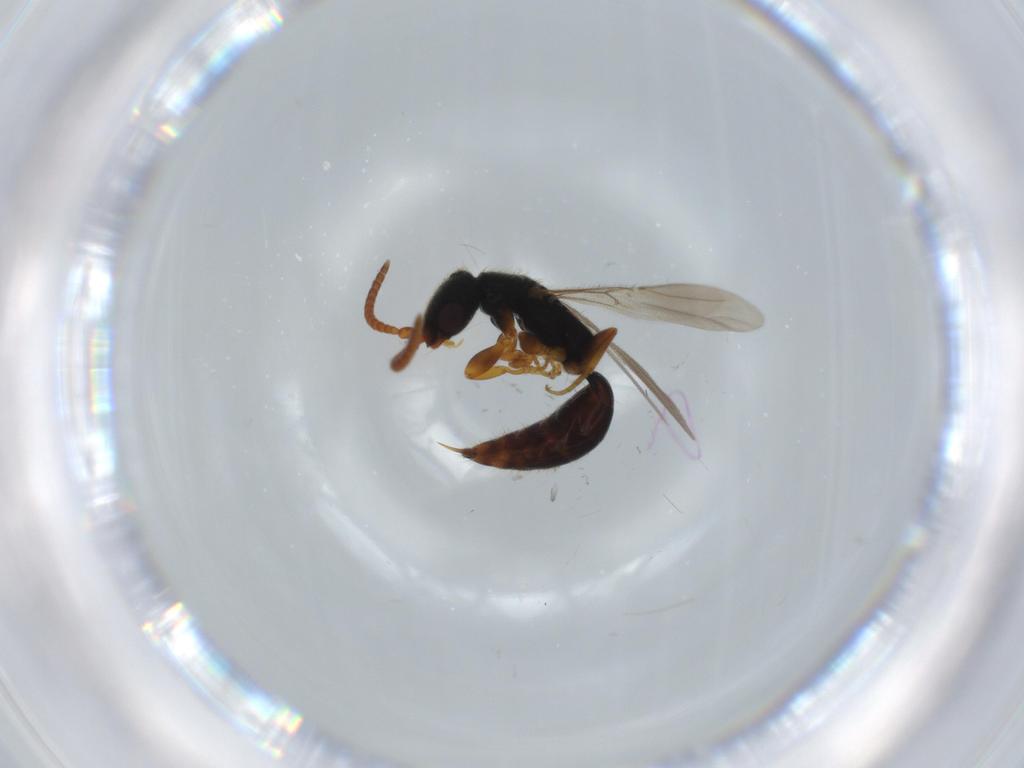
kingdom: Animalia
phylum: Arthropoda
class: Insecta
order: Hymenoptera
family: Bethylidae
